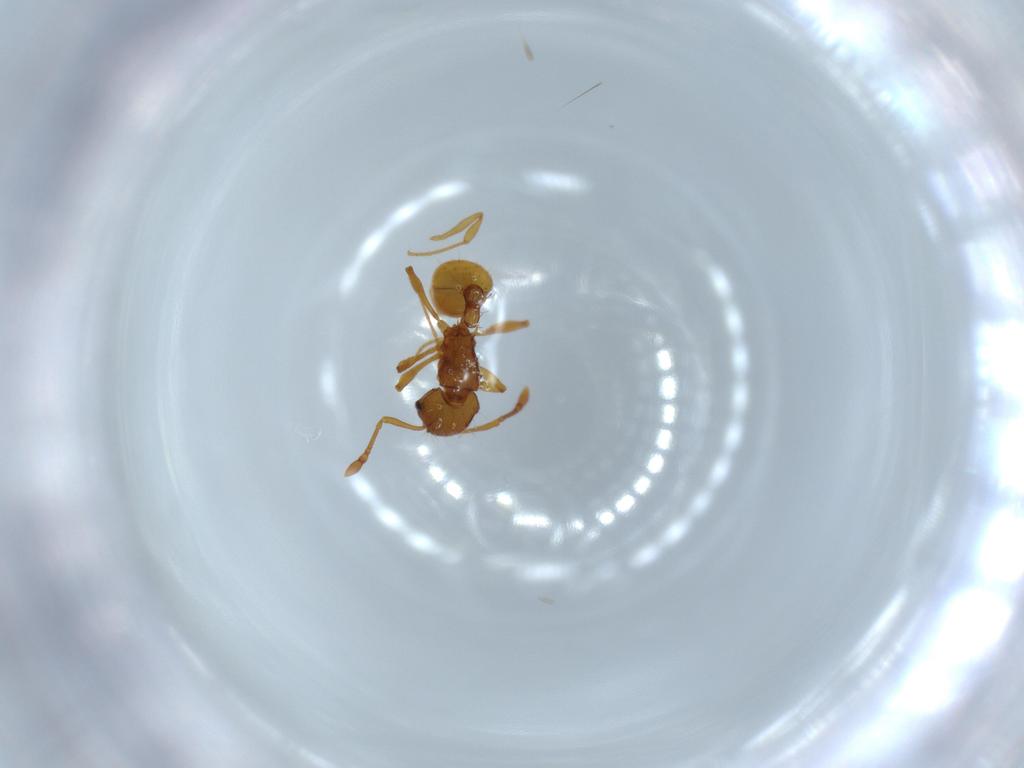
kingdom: Animalia
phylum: Arthropoda
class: Insecta
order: Hymenoptera
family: Formicidae
